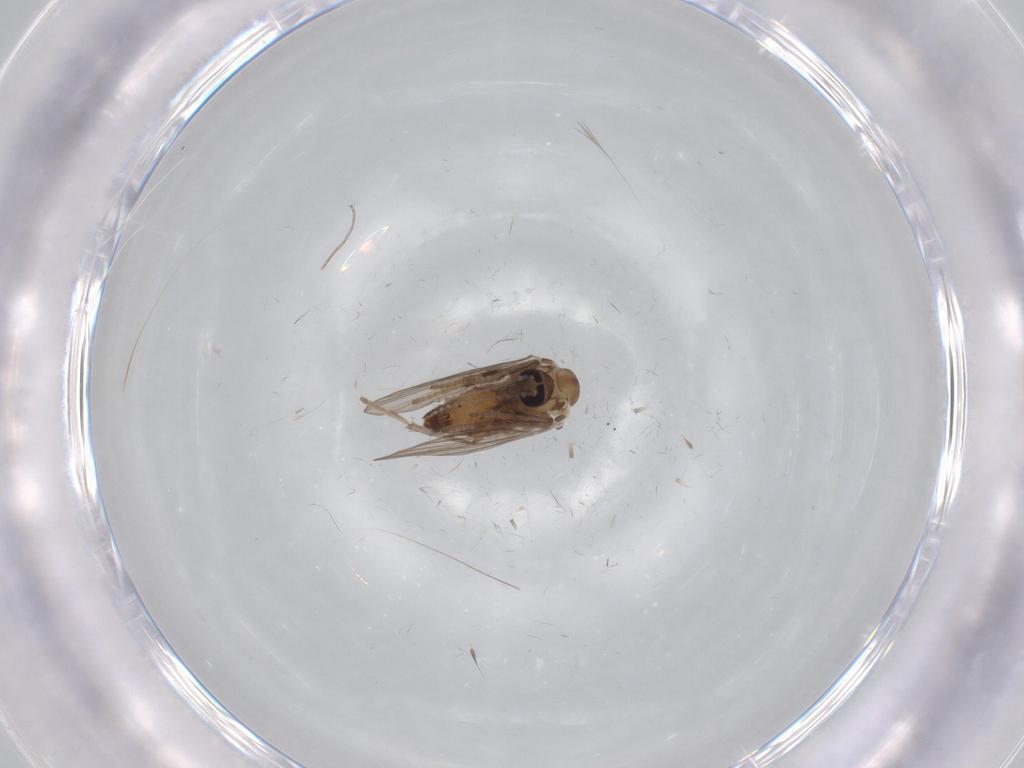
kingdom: Animalia
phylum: Arthropoda
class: Insecta
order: Diptera
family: Psychodidae
